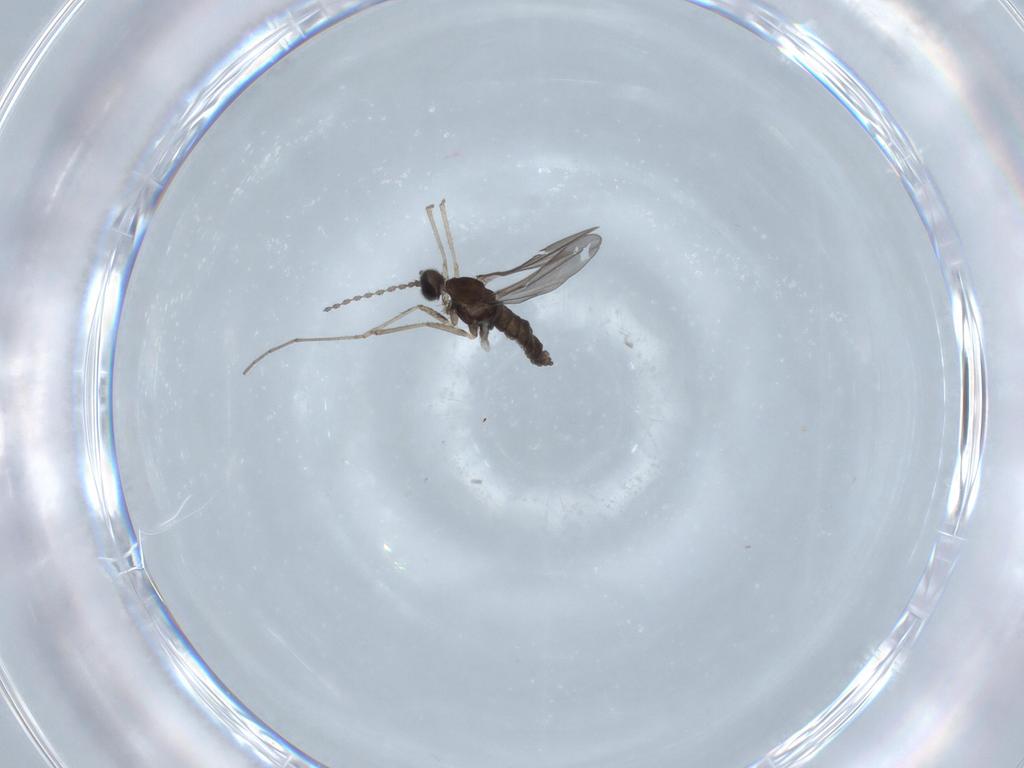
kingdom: Animalia
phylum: Arthropoda
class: Insecta
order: Diptera
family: Cecidomyiidae
